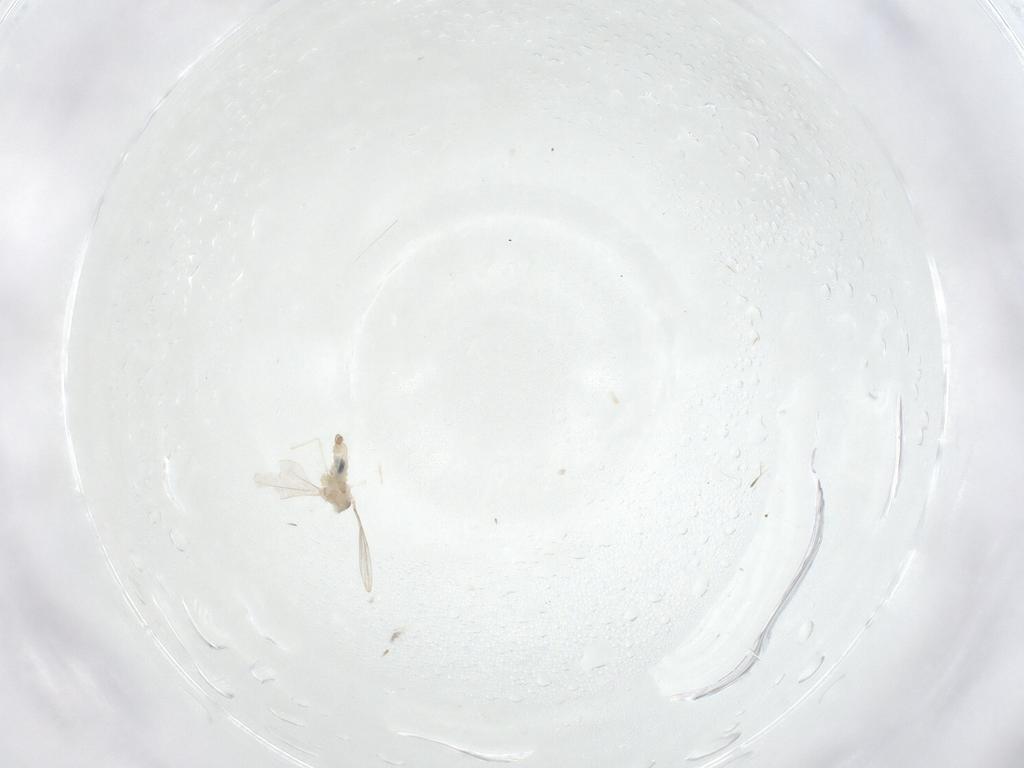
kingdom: Animalia
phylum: Arthropoda
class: Insecta
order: Diptera
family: Cecidomyiidae
